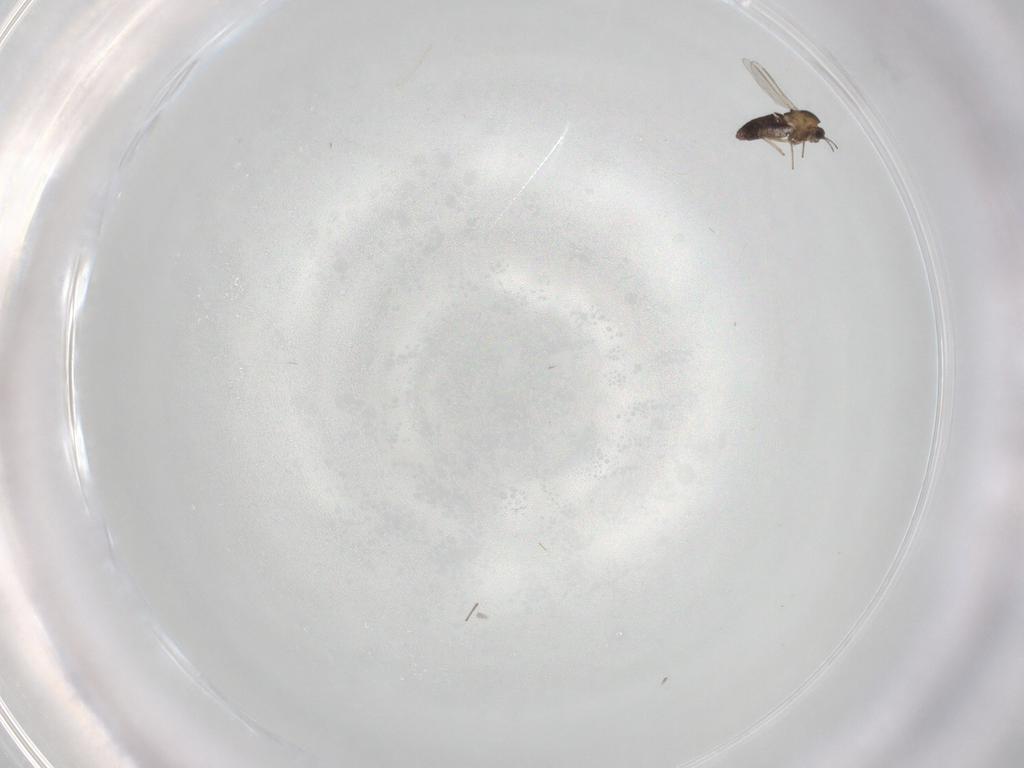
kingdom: Animalia
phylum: Arthropoda
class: Insecta
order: Diptera
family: Chironomidae
